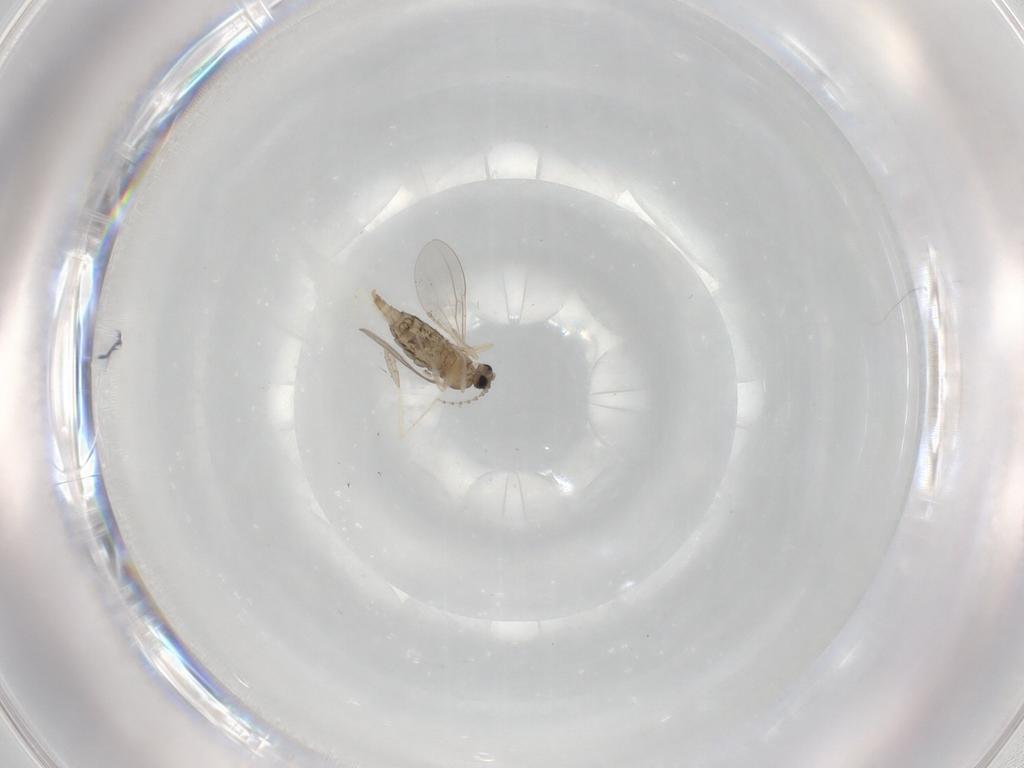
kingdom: Animalia
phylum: Arthropoda
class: Insecta
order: Diptera
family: Cecidomyiidae
